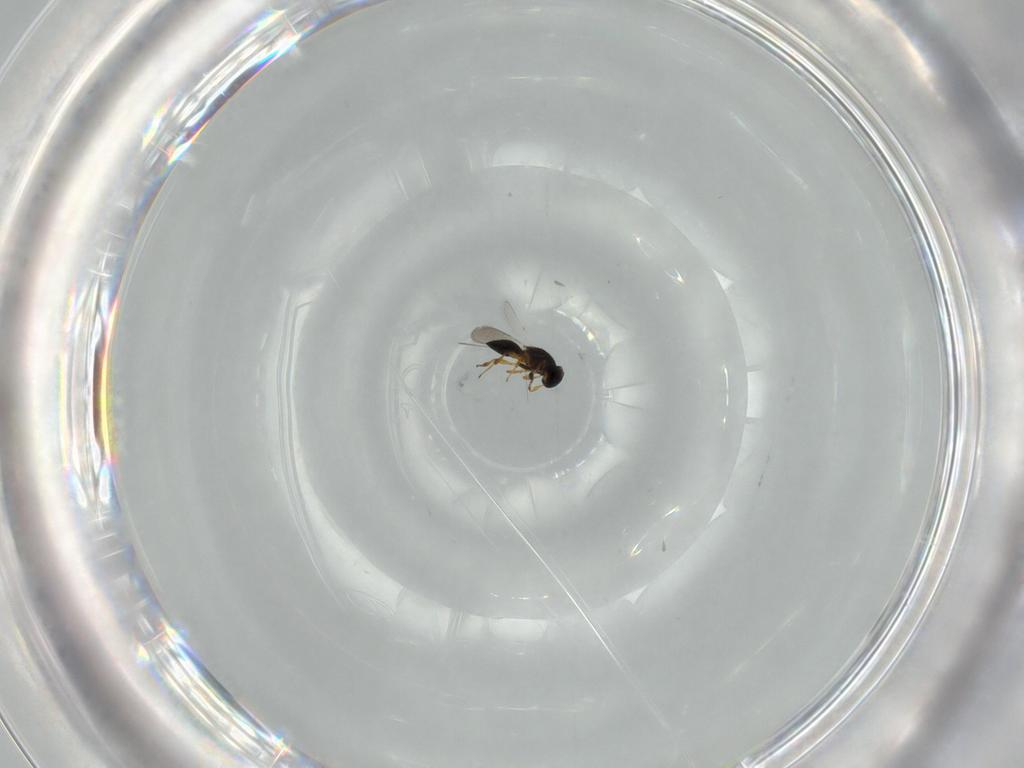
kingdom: Animalia
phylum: Arthropoda
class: Insecta
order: Hymenoptera
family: Platygastridae
